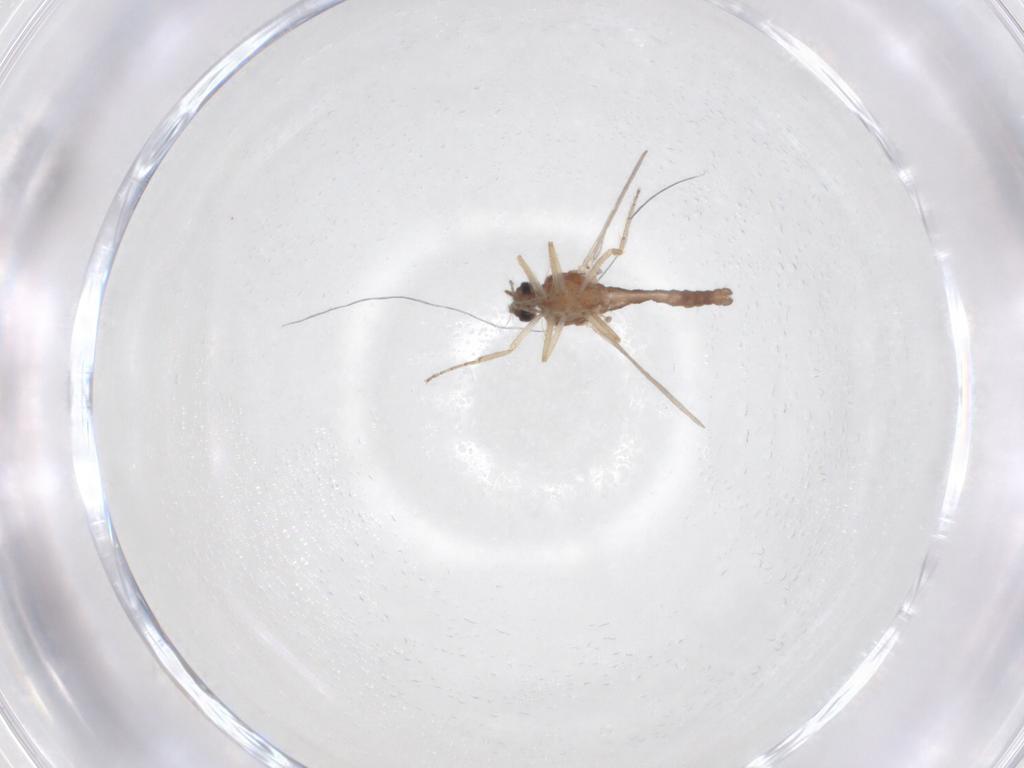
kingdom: Animalia
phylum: Arthropoda
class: Insecta
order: Diptera
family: Ceratopogonidae
